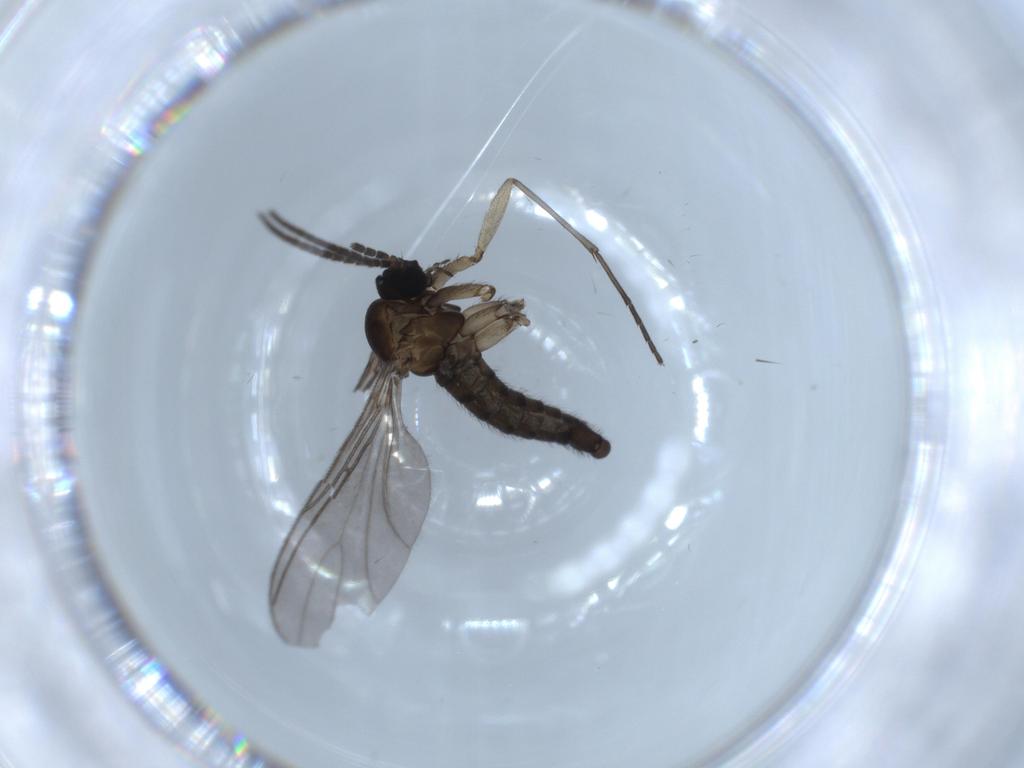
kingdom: Animalia
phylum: Arthropoda
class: Insecta
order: Diptera
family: Sciaridae
